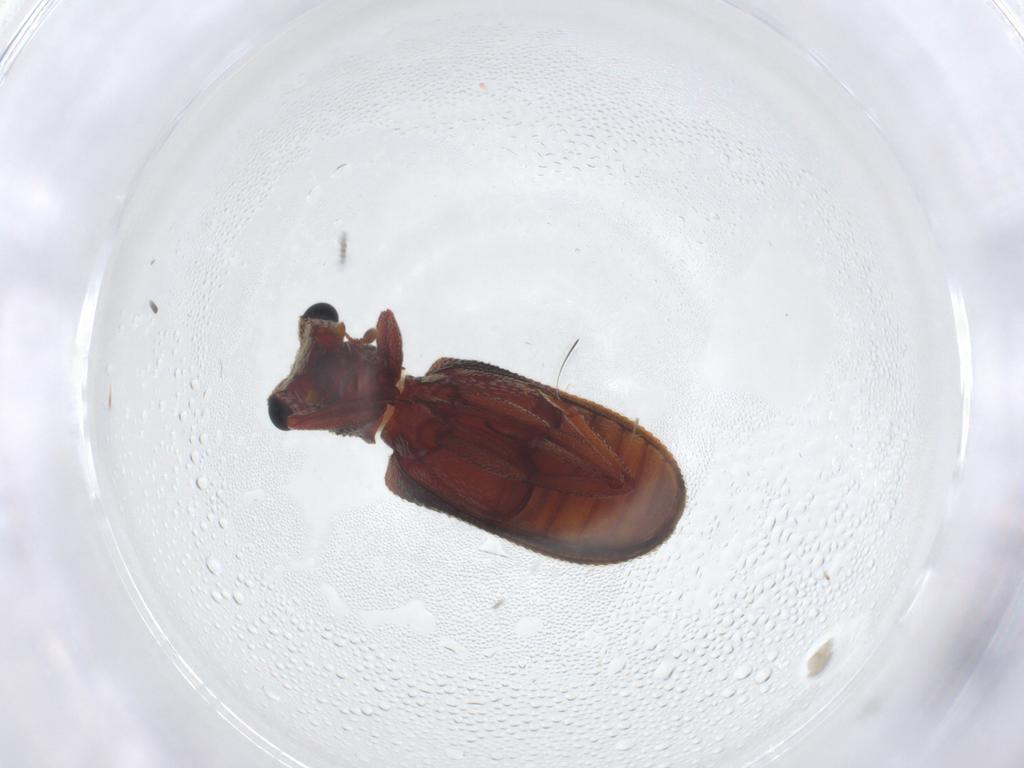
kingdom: Animalia
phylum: Arthropoda
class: Insecta
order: Coleoptera
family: Zopheridae
